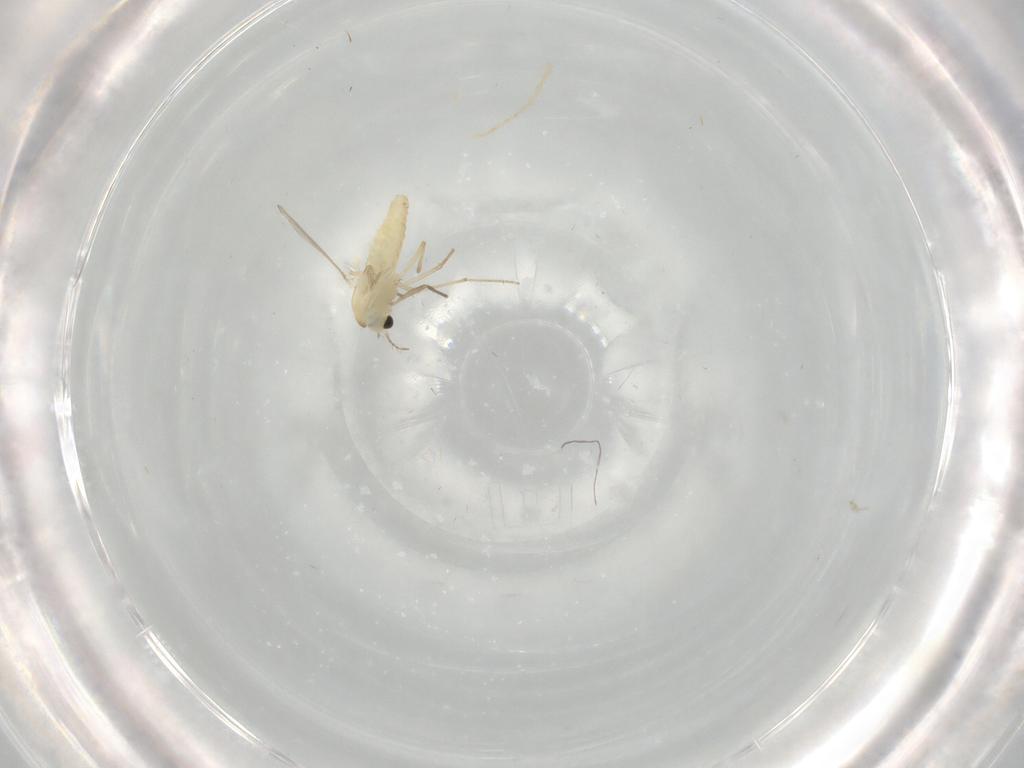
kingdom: Animalia
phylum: Arthropoda
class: Insecta
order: Diptera
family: Chironomidae
